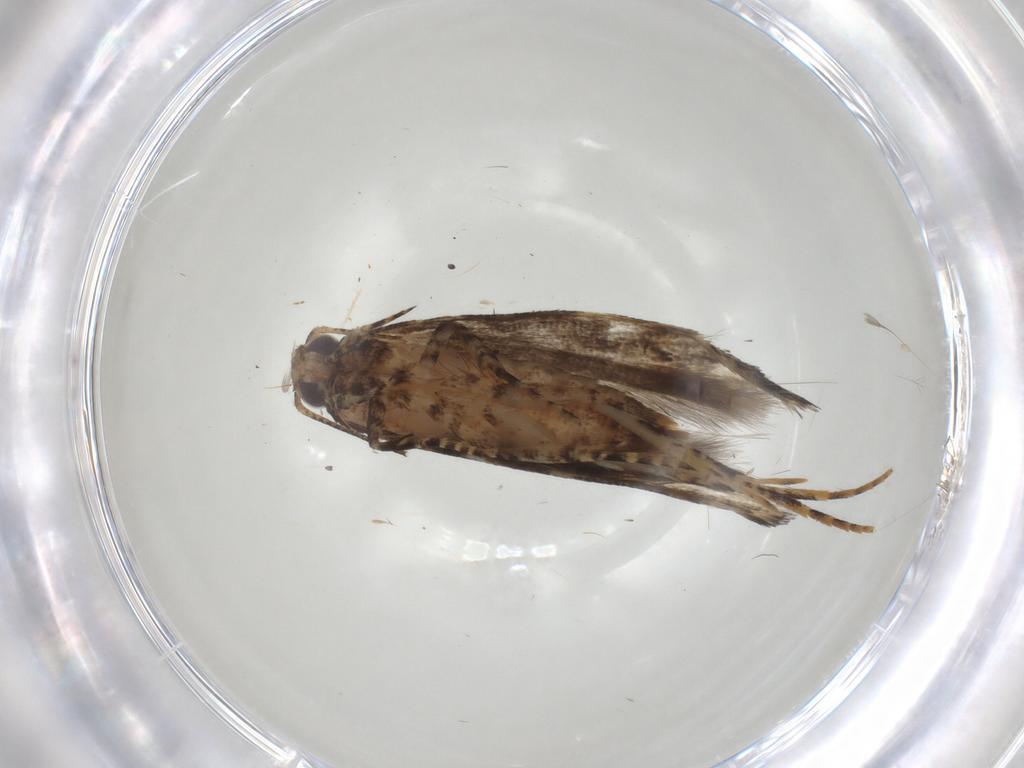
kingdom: Animalia
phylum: Arthropoda
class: Insecta
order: Lepidoptera
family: Gelechiidae
